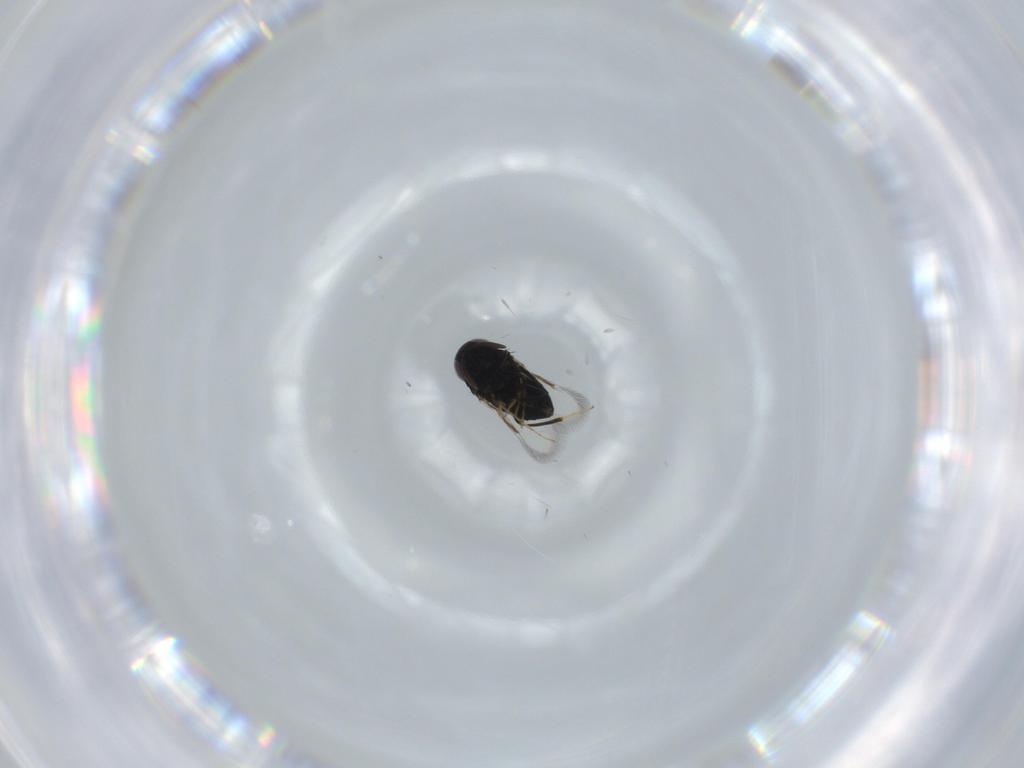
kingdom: Animalia
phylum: Arthropoda
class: Insecta
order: Hymenoptera
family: Signiphoridae
